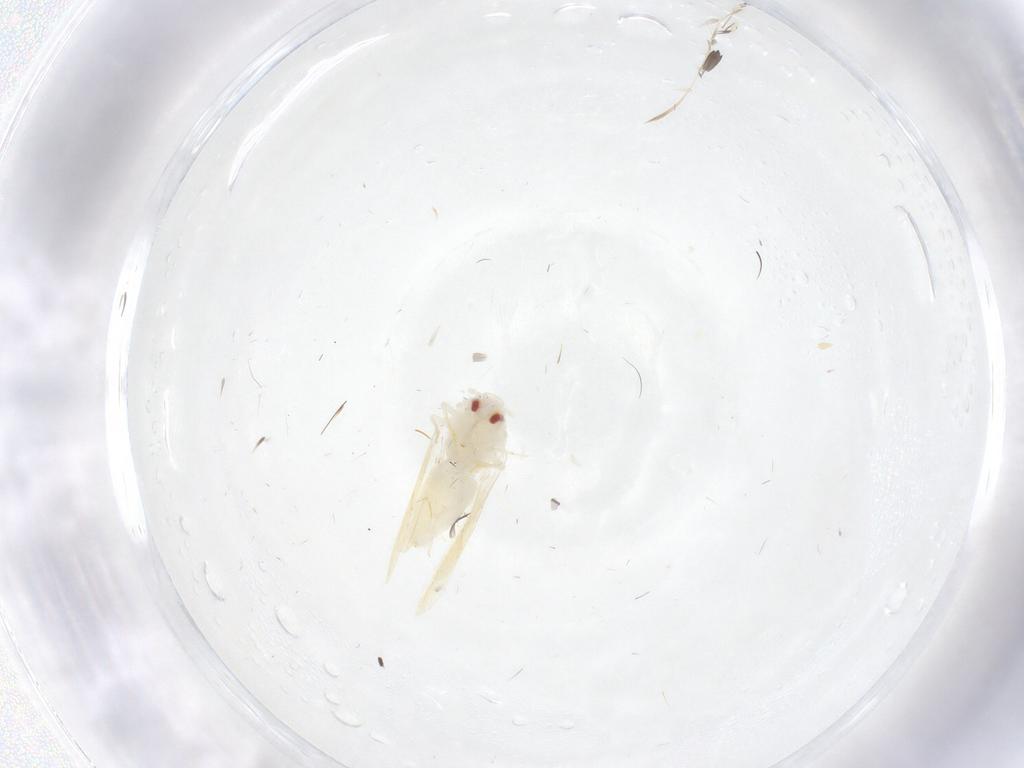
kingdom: Animalia
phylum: Arthropoda
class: Insecta
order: Hemiptera
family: Aleyrodidae
